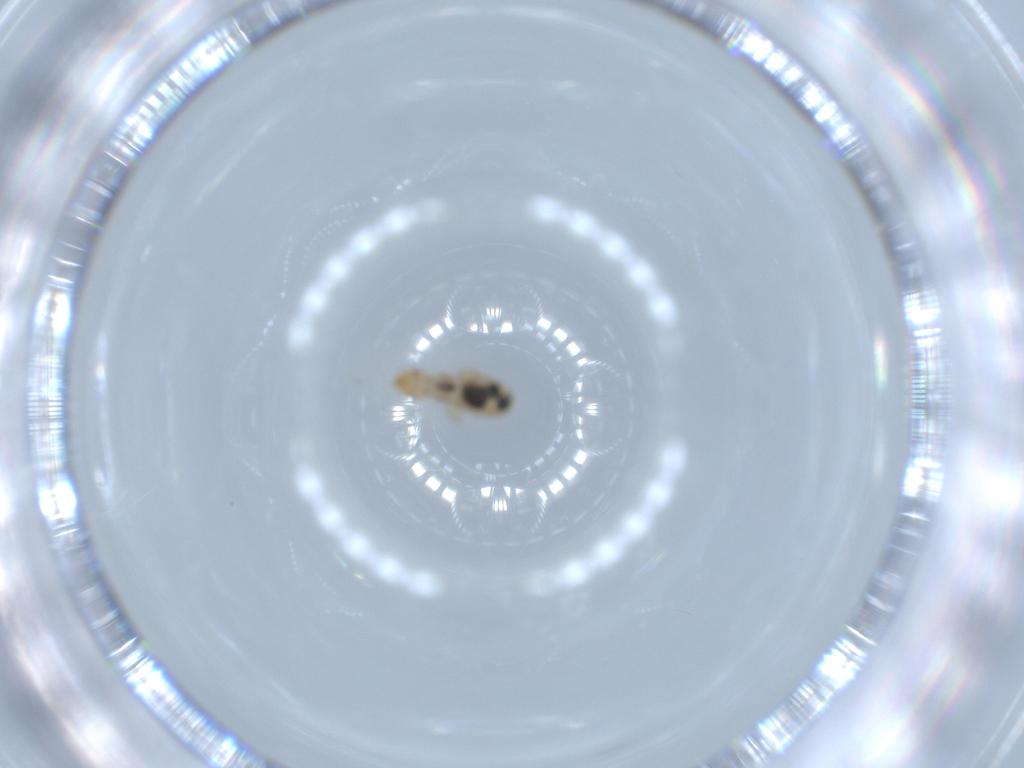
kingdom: Animalia
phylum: Arthropoda
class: Insecta
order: Psocodea
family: Liposcelididae
